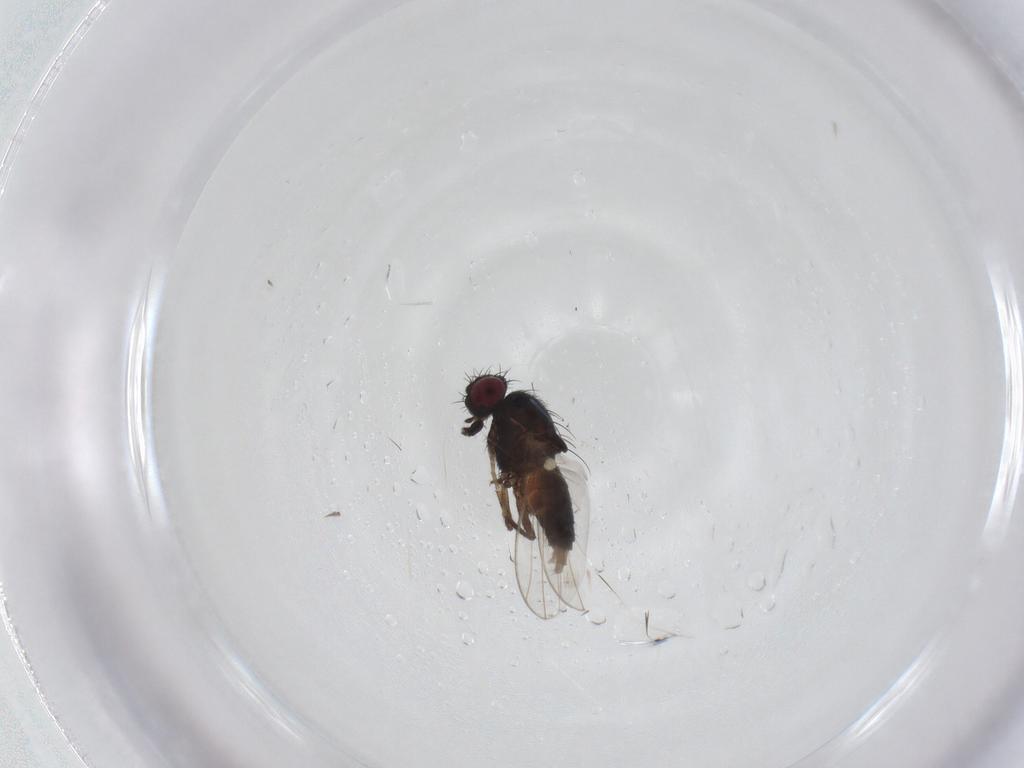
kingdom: Animalia
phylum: Arthropoda
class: Insecta
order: Diptera
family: Carnidae
